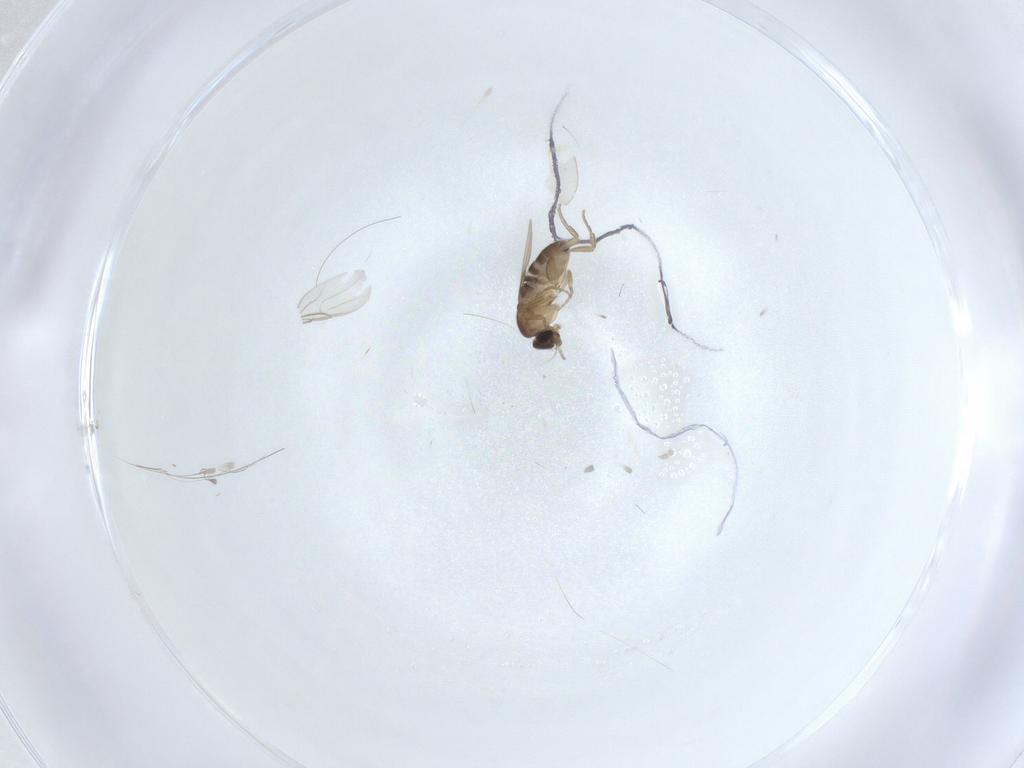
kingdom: Animalia
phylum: Arthropoda
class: Insecta
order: Diptera
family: Phoridae
